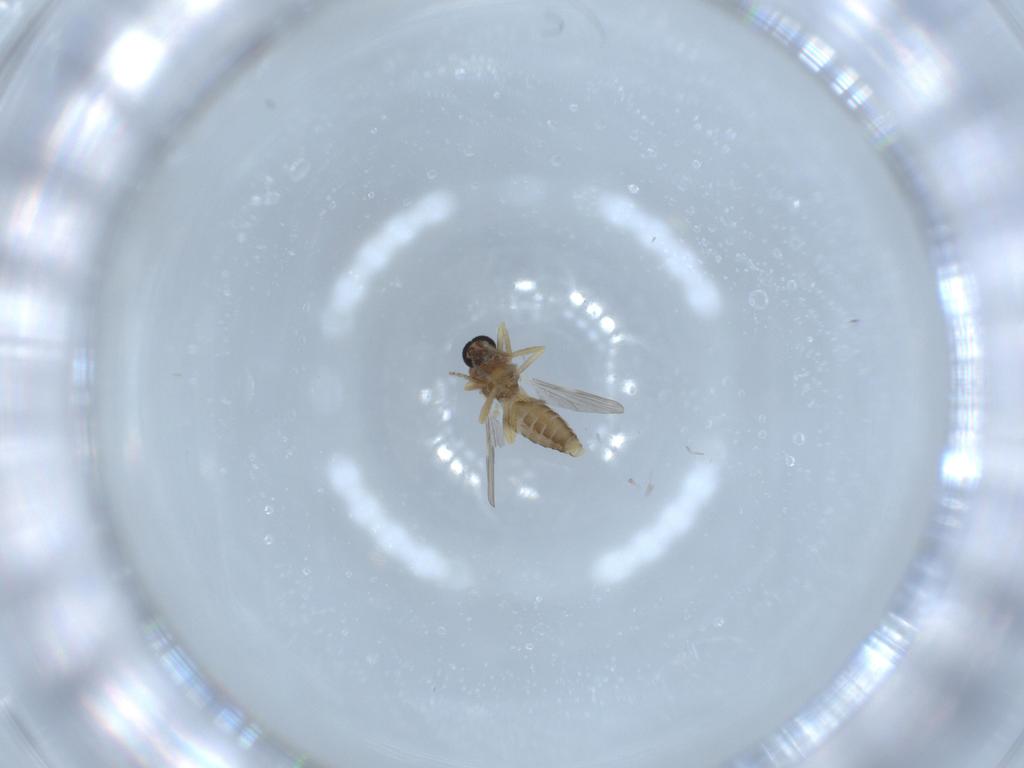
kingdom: Animalia
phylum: Arthropoda
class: Insecta
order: Diptera
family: Ceratopogonidae
